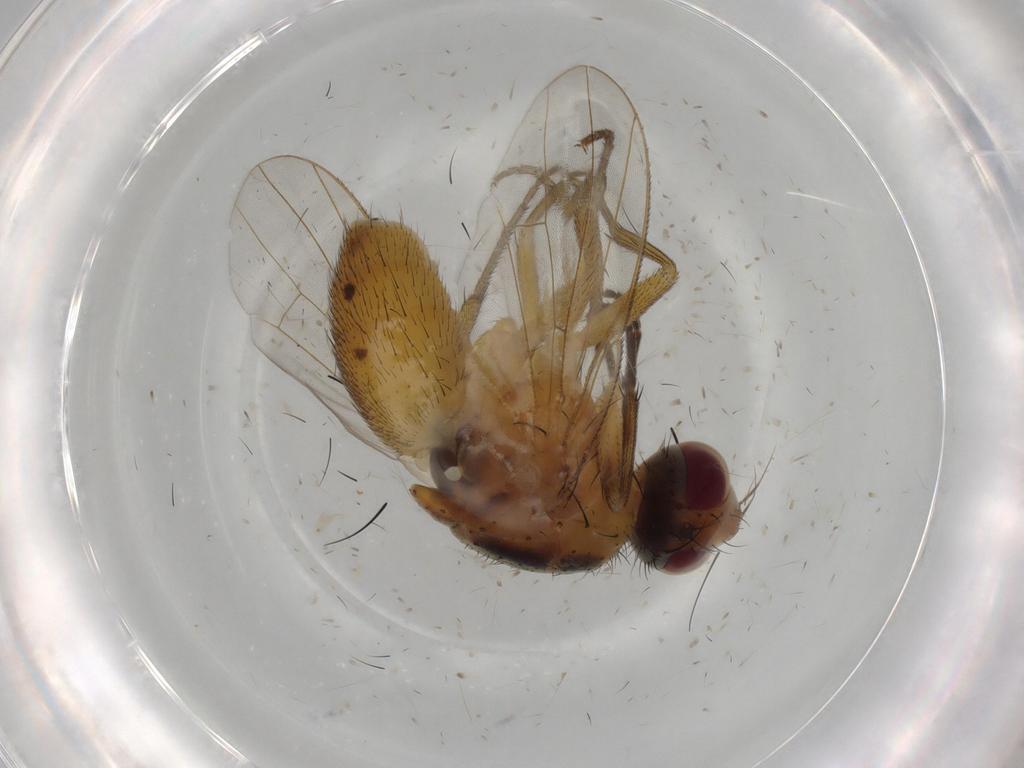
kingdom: Animalia
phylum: Arthropoda
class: Insecta
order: Diptera
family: Muscidae
